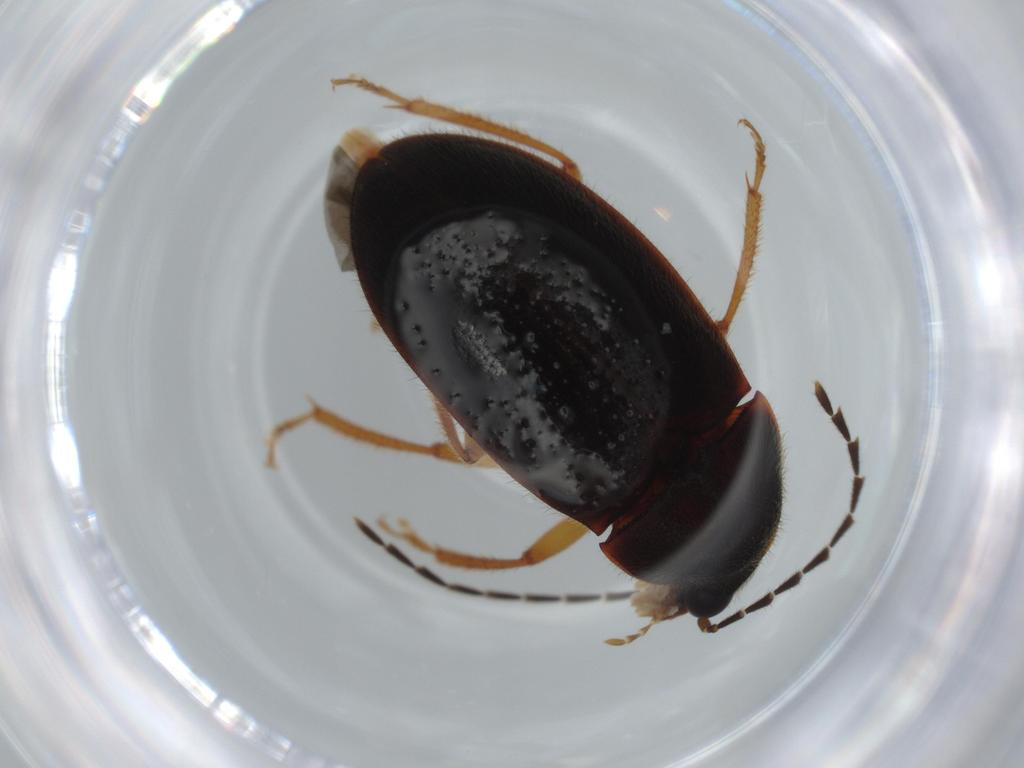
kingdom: Animalia
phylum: Arthropoda
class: Insecta
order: Coleoptera
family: Ptilodactylidae
